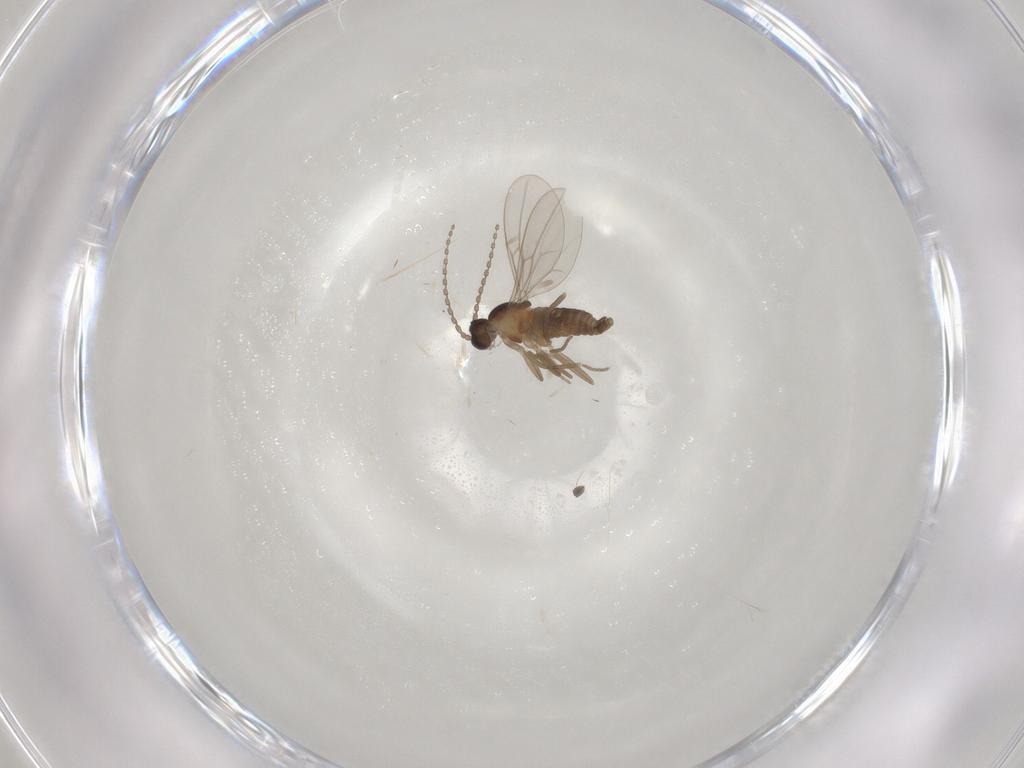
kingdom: Animalia
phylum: Arthropoda
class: Insecta
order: Diptera
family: Cecidomyiidae
